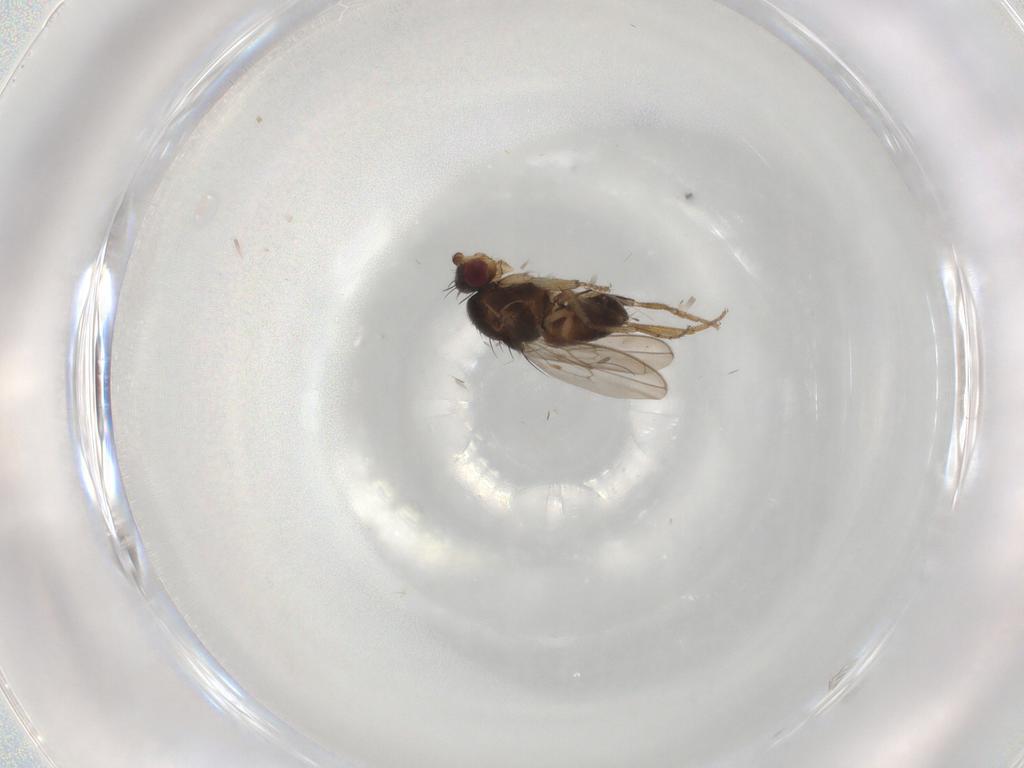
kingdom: Animalia
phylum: Arthropoda
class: Insecta
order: Diptera
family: Sphaeroceridae
